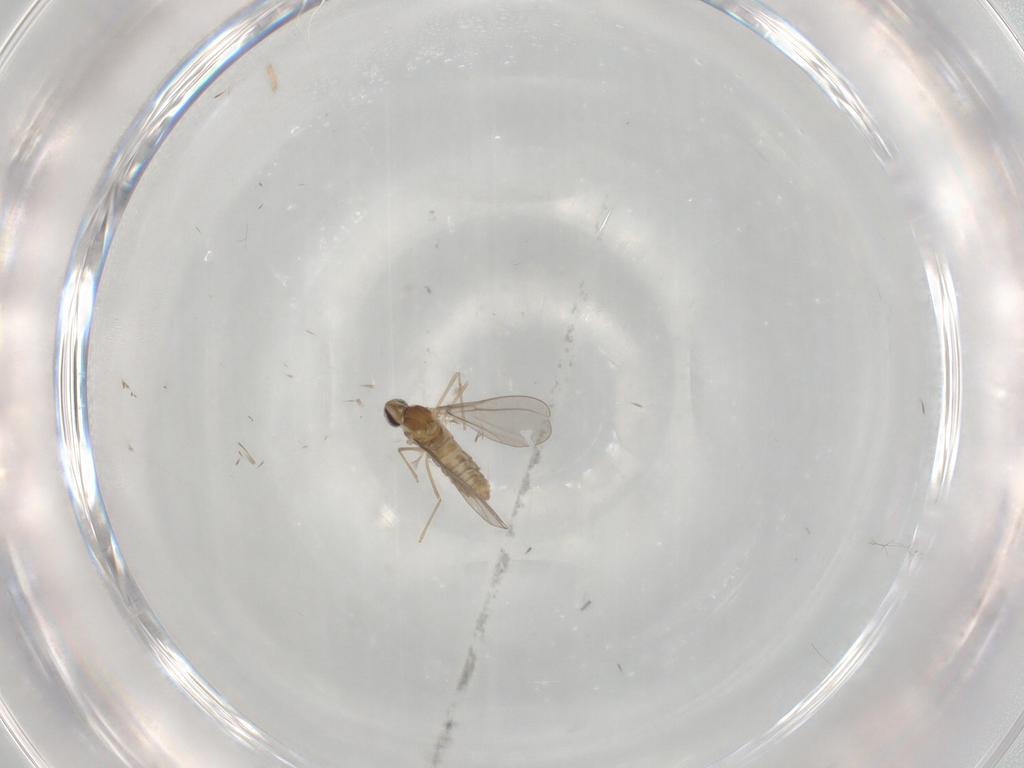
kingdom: Animalia
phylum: Arthropoda
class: Insecta
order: Diptera
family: Cecidomyiidae
